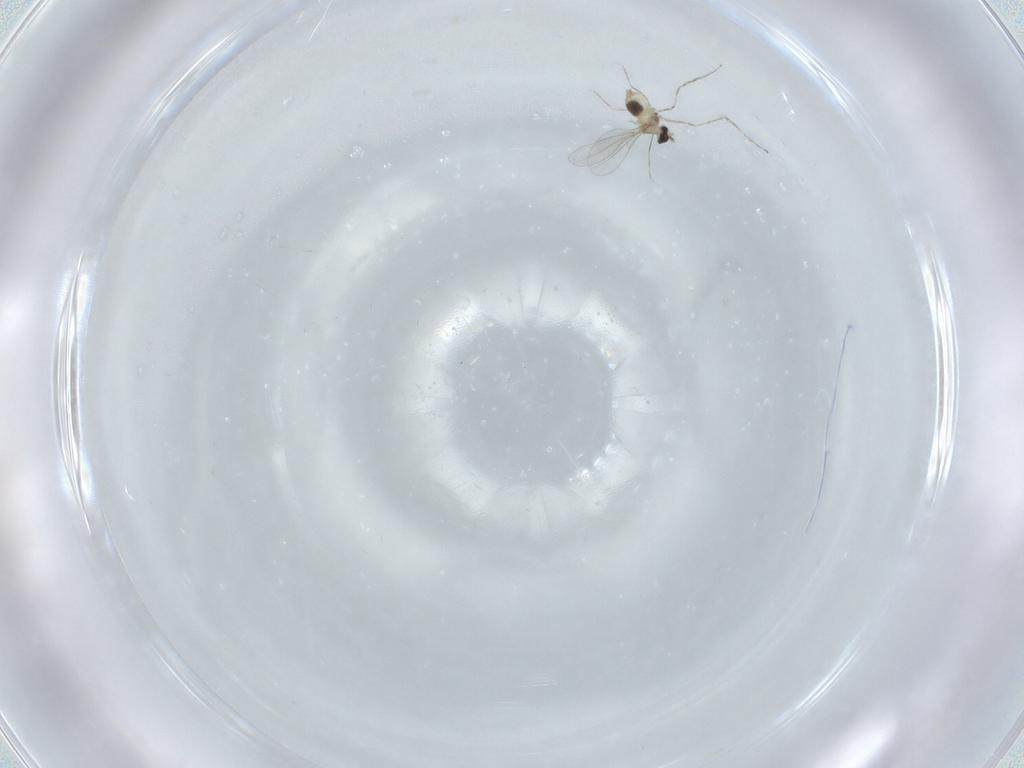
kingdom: Animalia
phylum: Arthropoda
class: Insecta
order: Diptera
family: Cecidomyiidae
